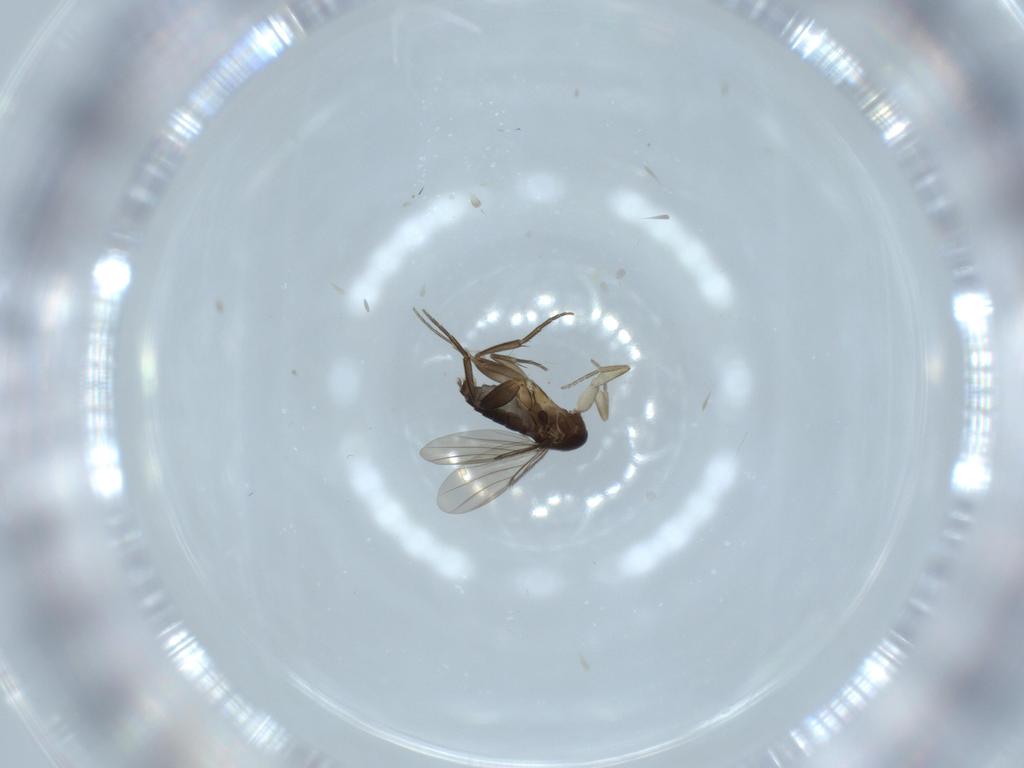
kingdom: Animalia
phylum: Arthropoda
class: Insecta
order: Diptera
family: Phoridae
